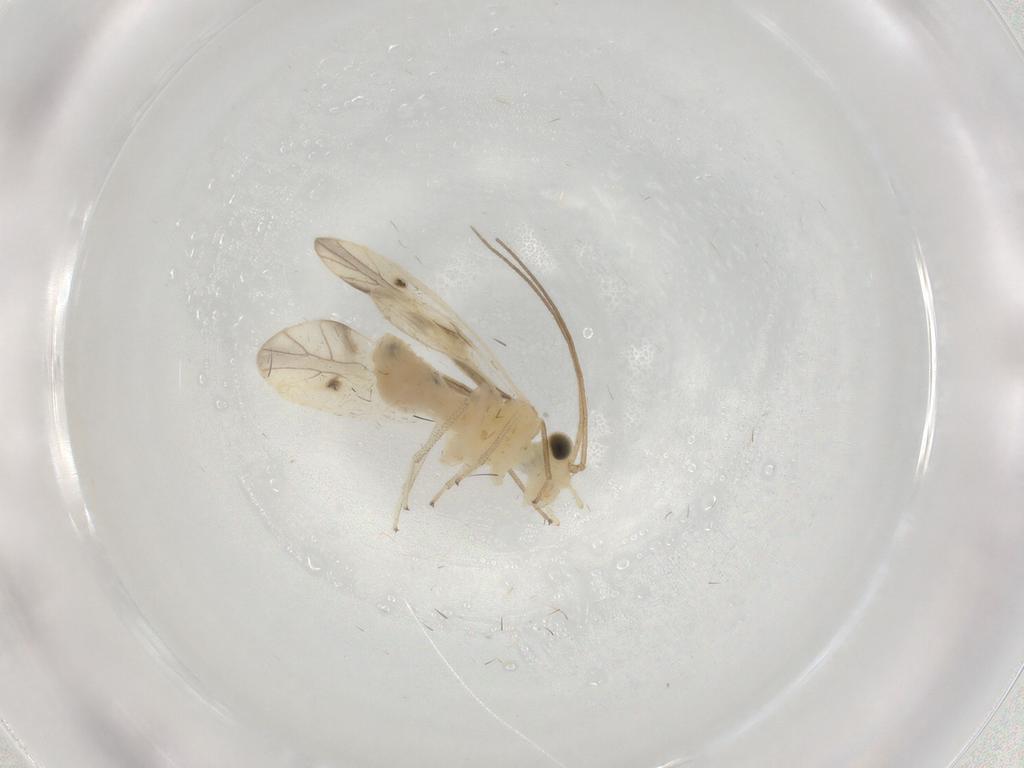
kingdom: Animalia
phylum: Arthropoda
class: Insecta
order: Psocodea
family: Caeciliusidae
